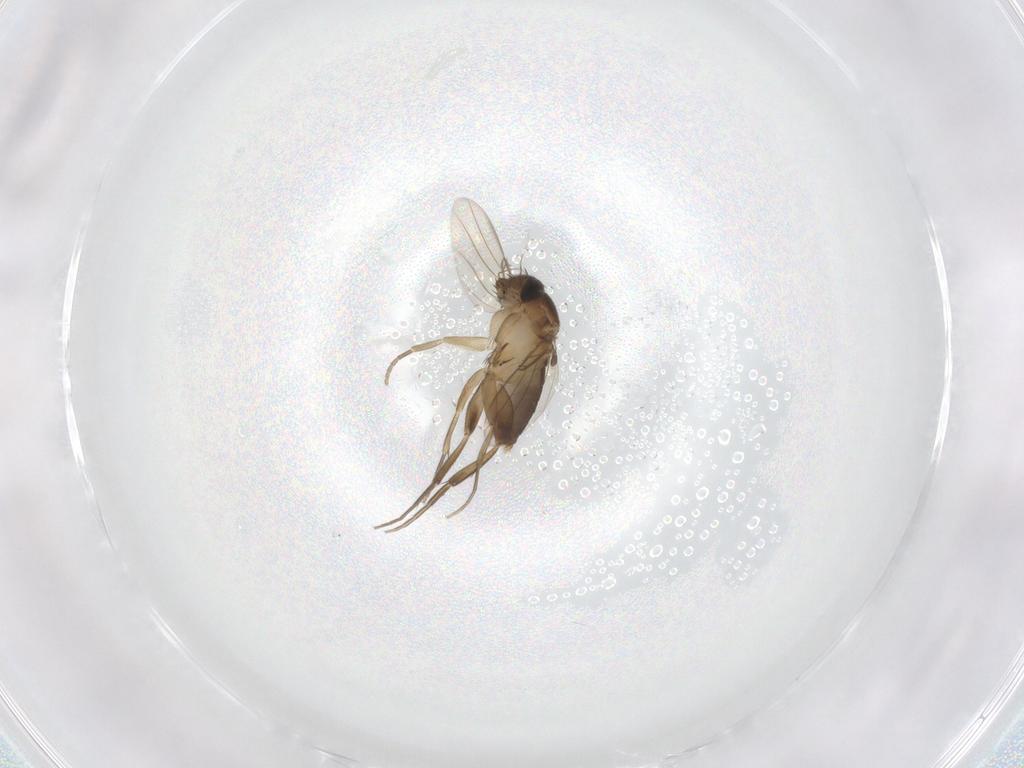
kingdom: Animalia
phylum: Arthropoda
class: Insecta
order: Diptera
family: Phoridae
